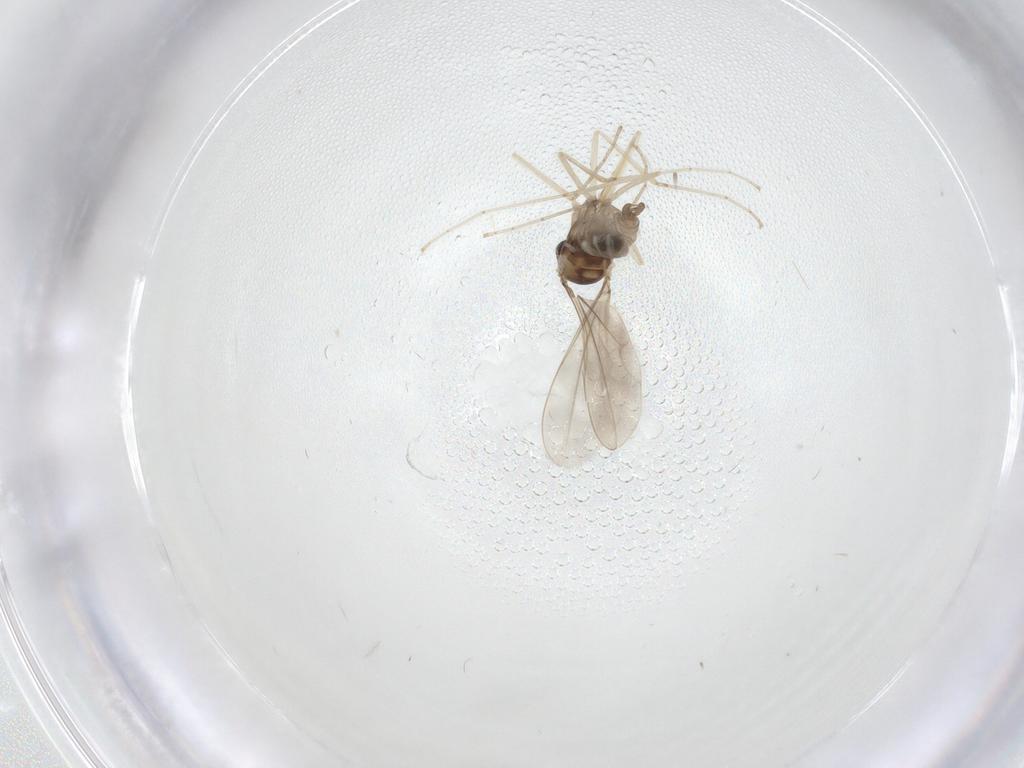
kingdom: Animalia
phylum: Arthropoda
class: Insecta
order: Diptera
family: Cecidomyiidae
